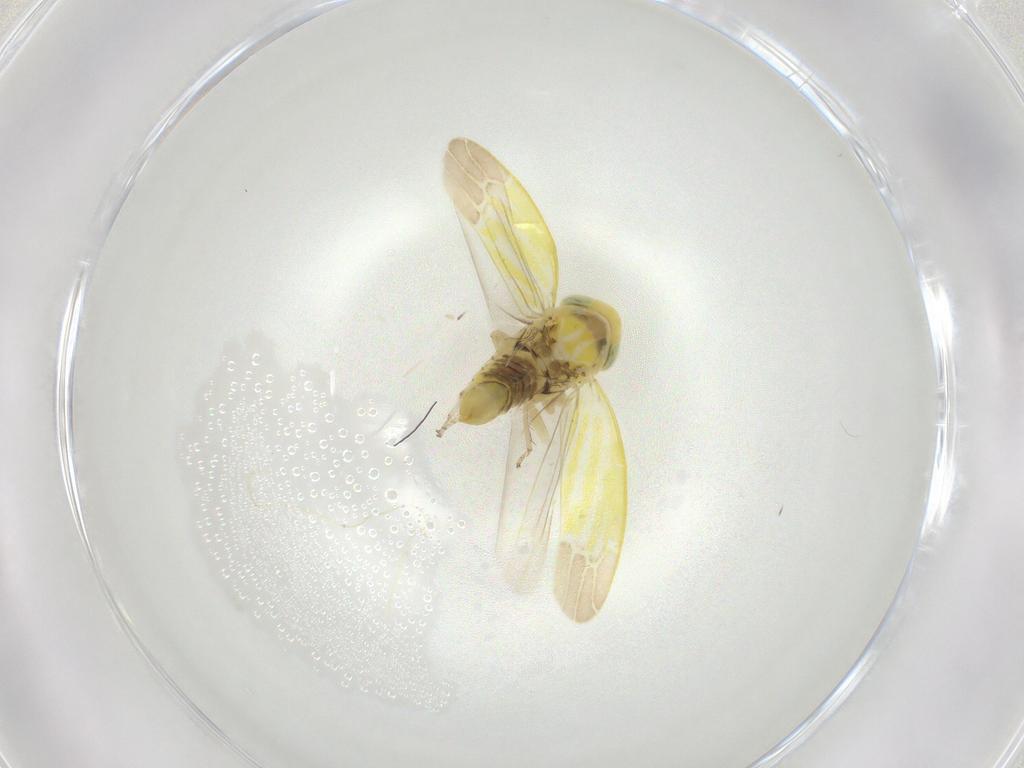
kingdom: Animalia
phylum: Arthropoda
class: Insecta
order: Hemiptera
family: Cicadellidae
